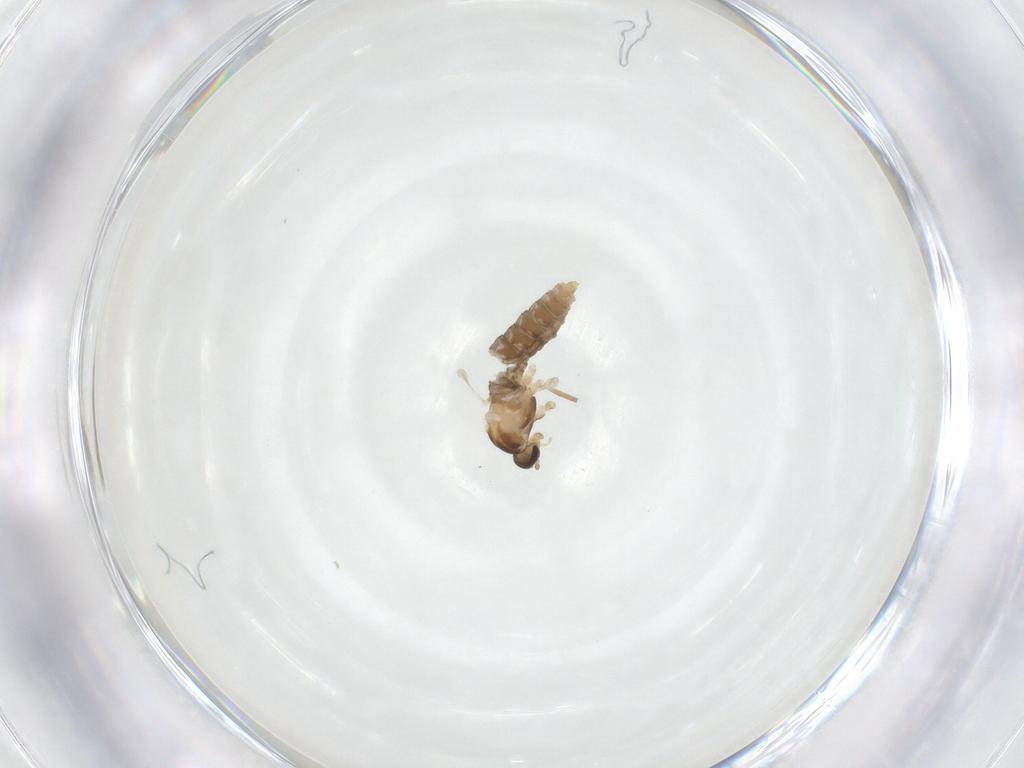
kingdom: Animalia
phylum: Arthropoda
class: Insecta
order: Diptera
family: Cecidomyiidae
